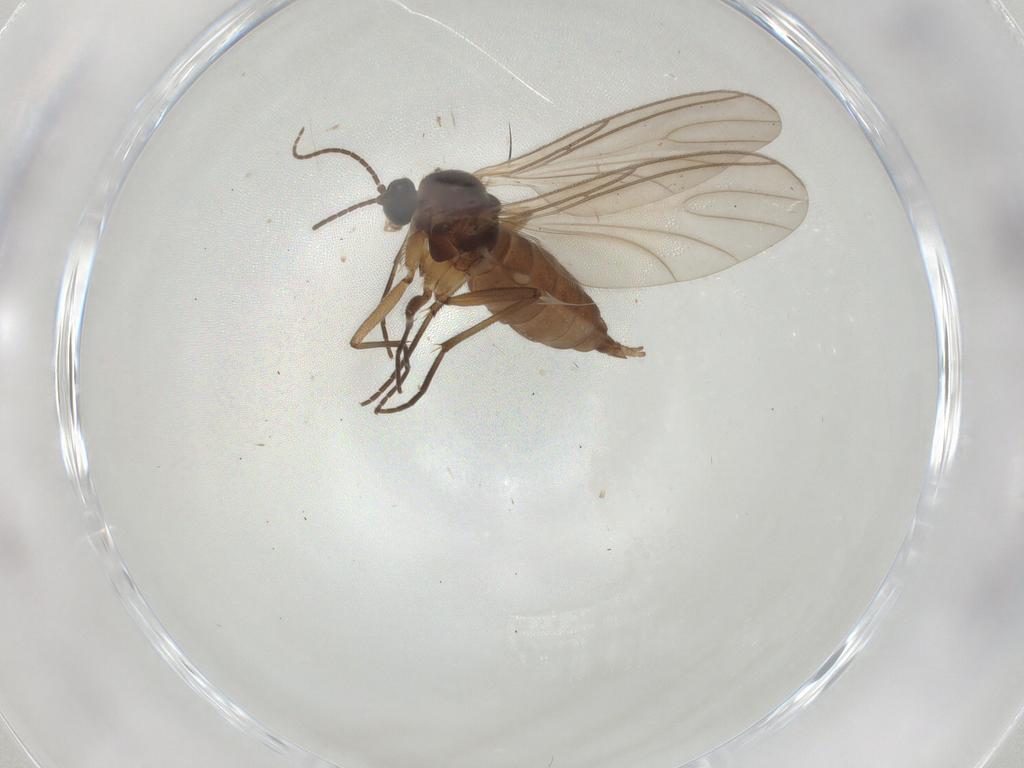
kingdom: Animalia
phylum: Arthropoda
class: Insecta
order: Diptera
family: Sciaridae
